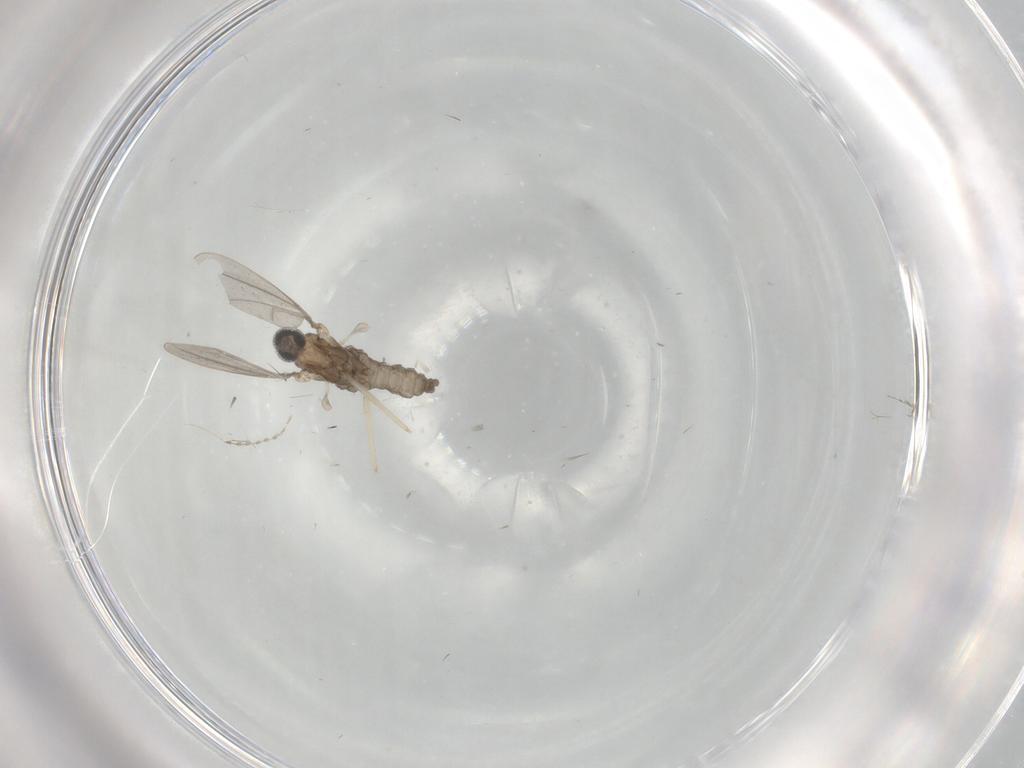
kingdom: Animalia
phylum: Arthropoda
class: Insecta
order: Diptera
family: Cecidomyiidae
